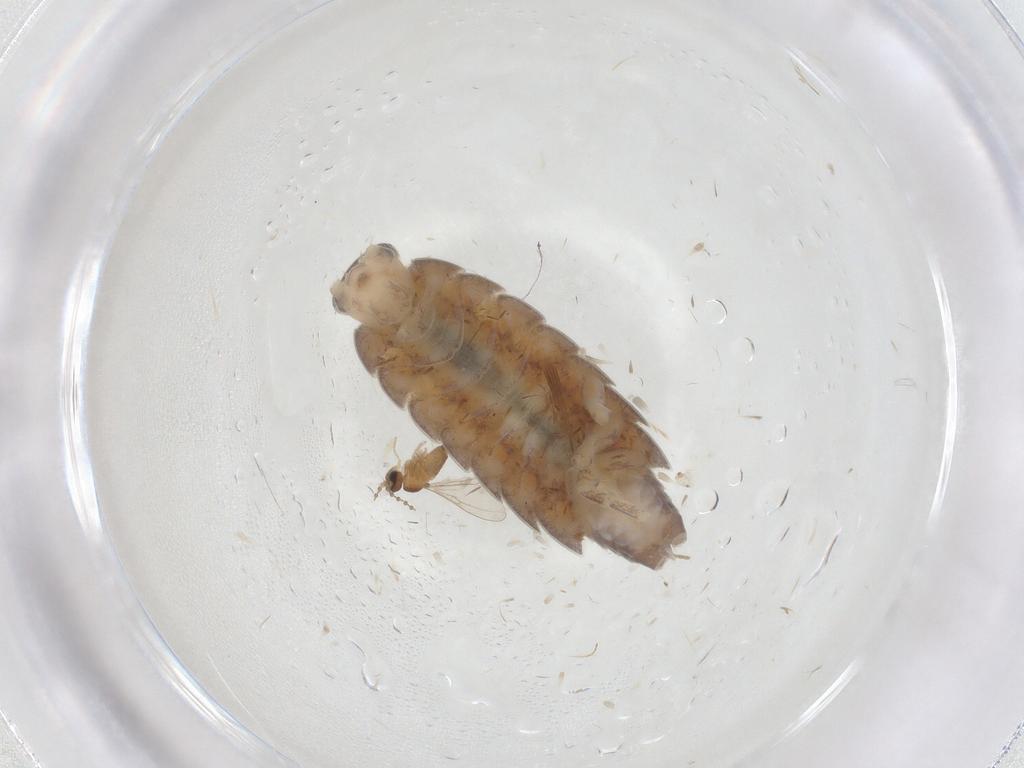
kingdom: Animalia
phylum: Arthropoda
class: Insecta
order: Diptera
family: Cecidomyiidae
